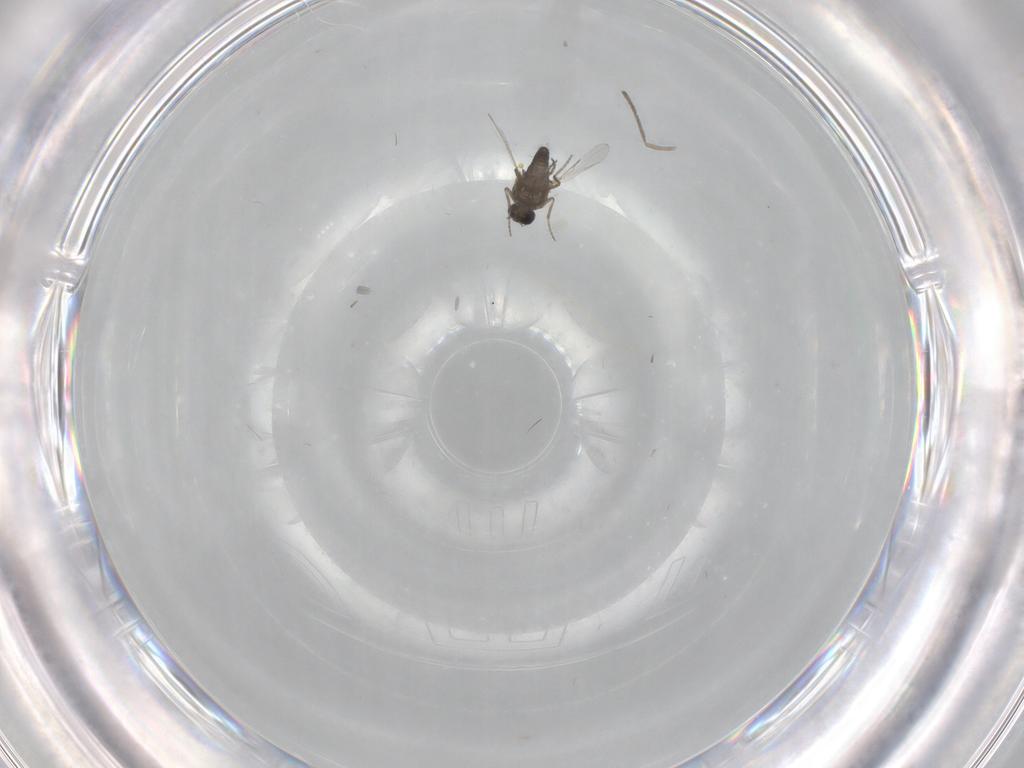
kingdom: Animalia
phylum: Arthropoda
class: Insecta
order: Diptera
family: Ceratopogonidae
